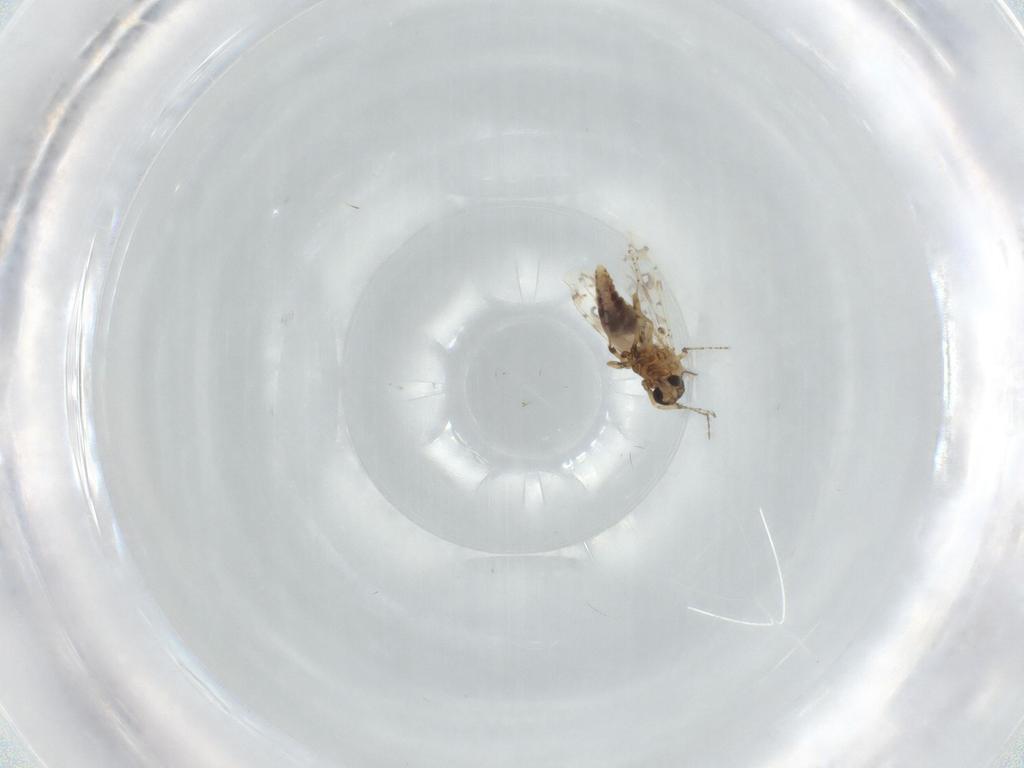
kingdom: Animalia
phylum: Arthropoda
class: Insecta
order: Diptera
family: Ceratopogonidae
